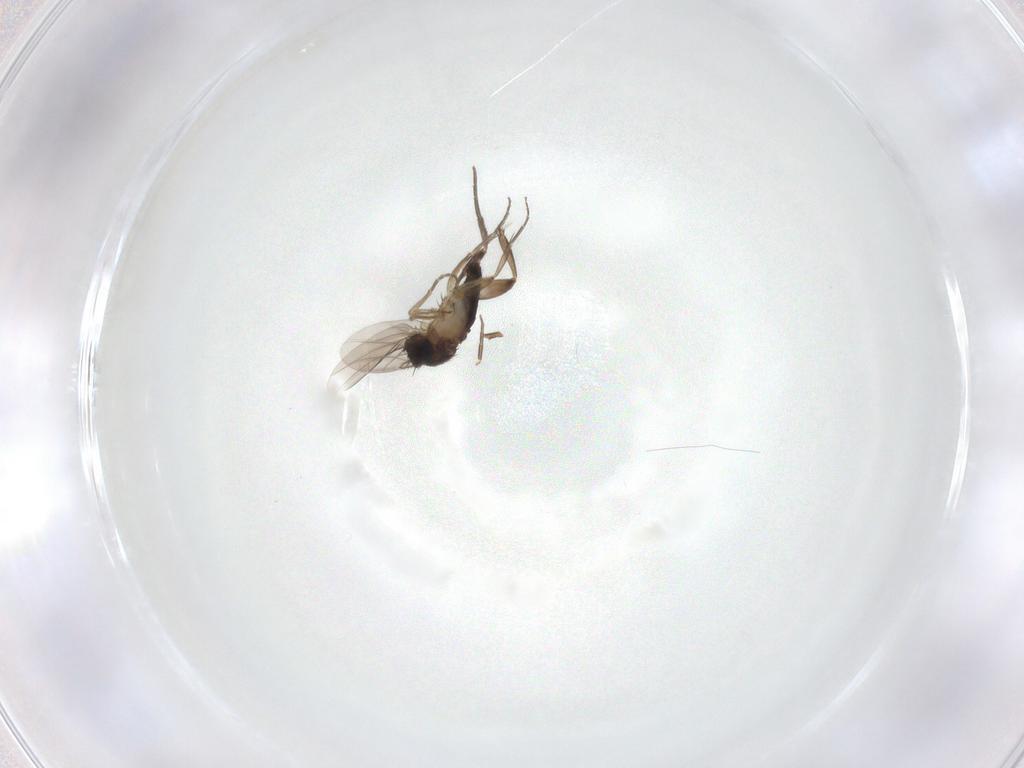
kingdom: Animalia
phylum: Arthropoda
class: Insecta
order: Diptera
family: Phoridae
